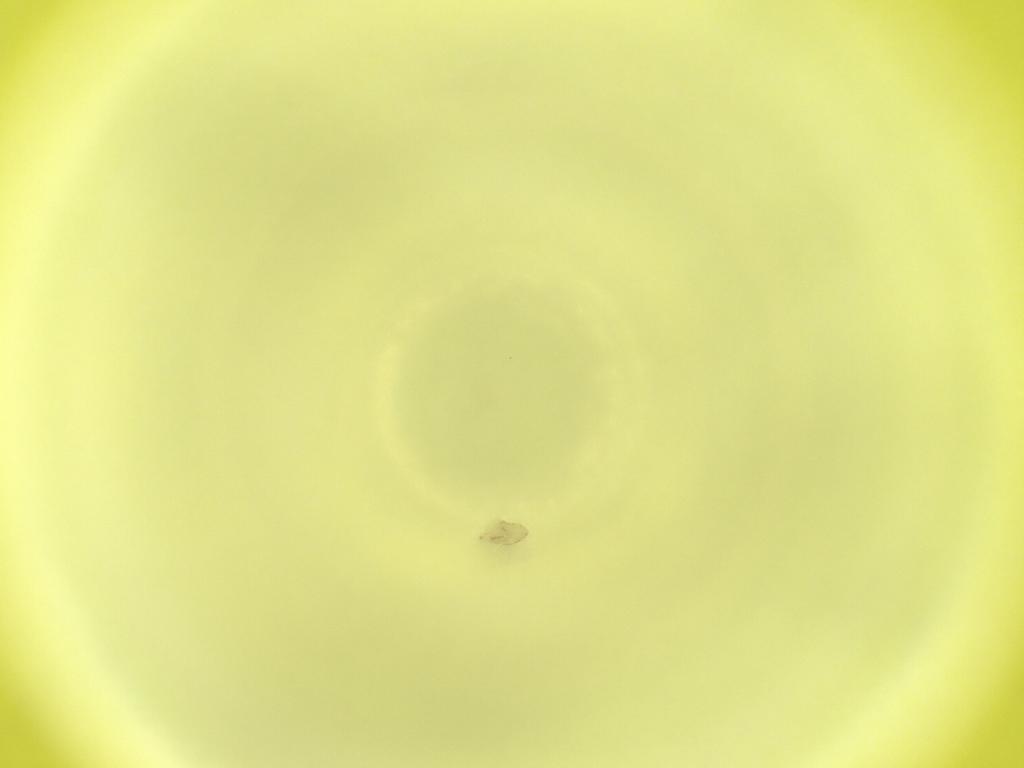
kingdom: Animalia
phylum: Arthropoda
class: Insecta
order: Diptera
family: Cecidomyiidae
